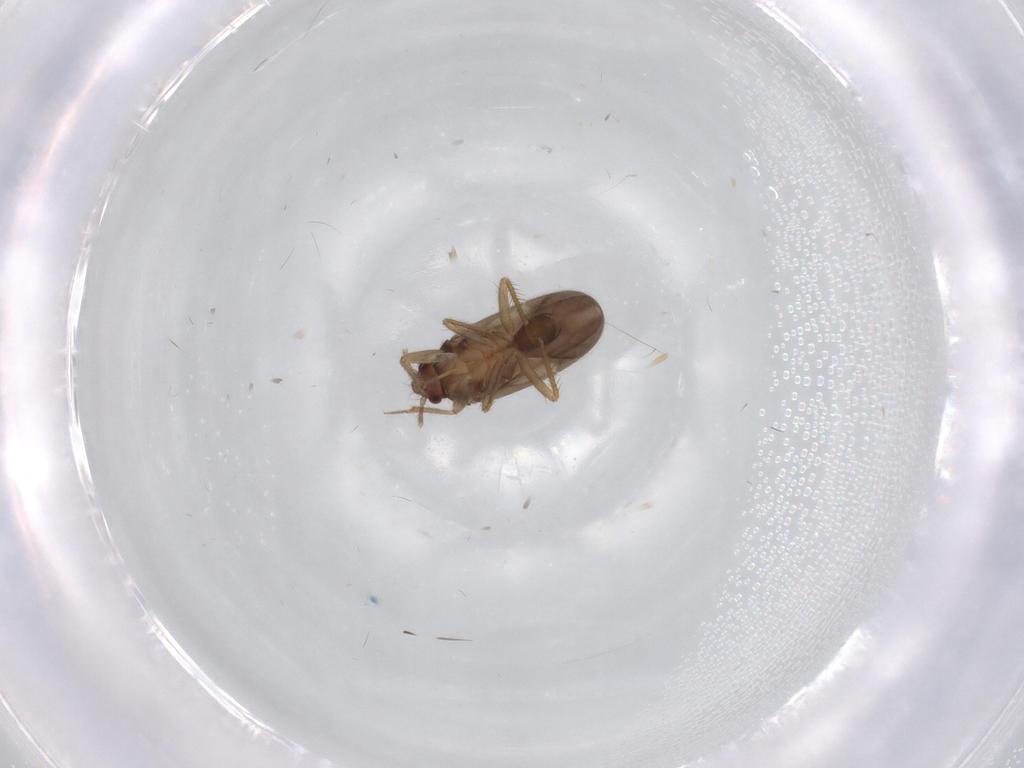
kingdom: Animalia
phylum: Arthropoda
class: Insecta
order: Hemiptera
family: Ceratocombidae
